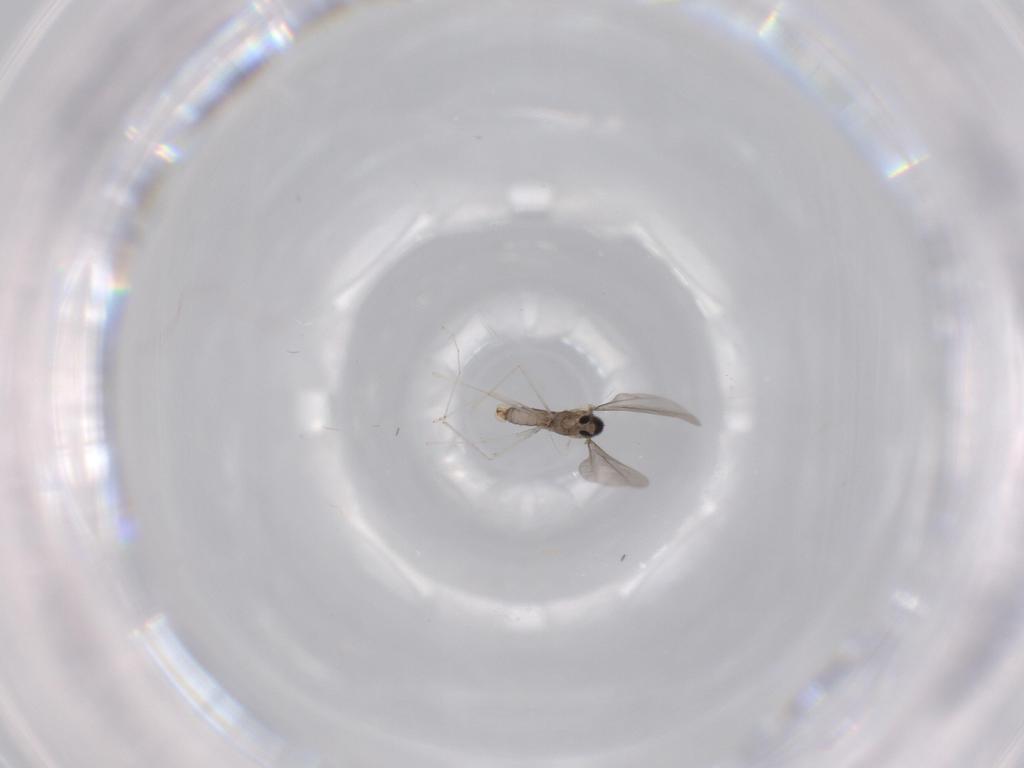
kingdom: Animalia
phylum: Arthropoda
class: Insecta
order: Diptera
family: Cecidomyiidae
